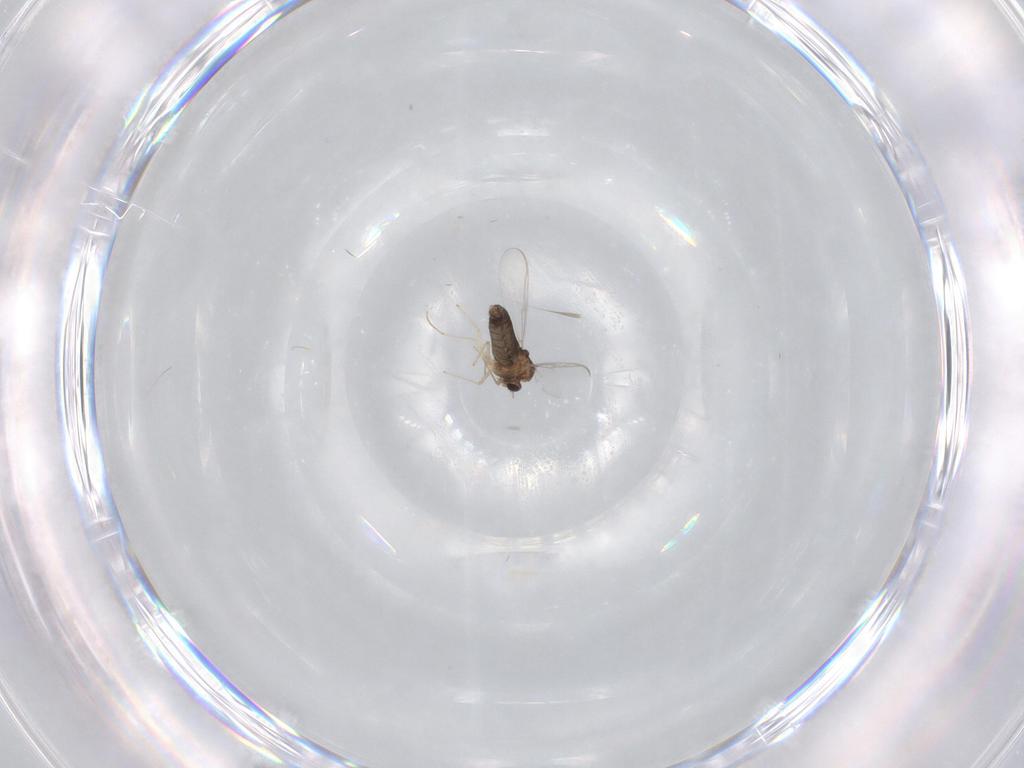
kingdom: Animalia
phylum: Arthropoda
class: Insecta
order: Diptera
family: Chironomidae
